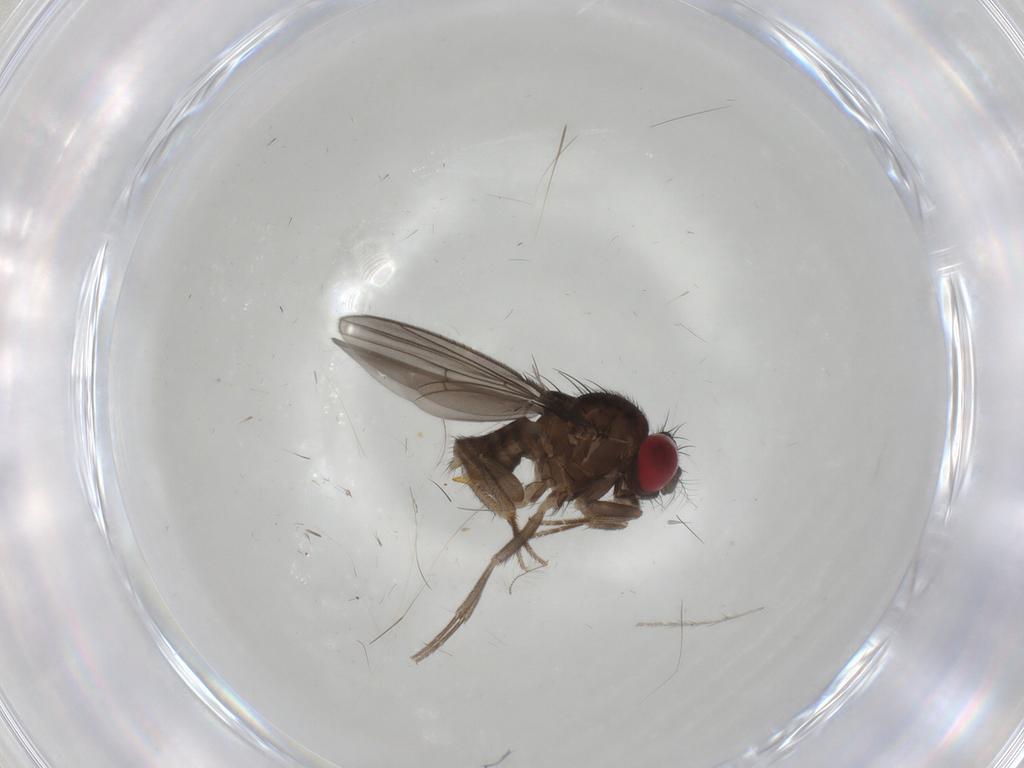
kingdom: Animalia
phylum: Arthropoda
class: Insecta
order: Diptera
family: Drosophilidae
